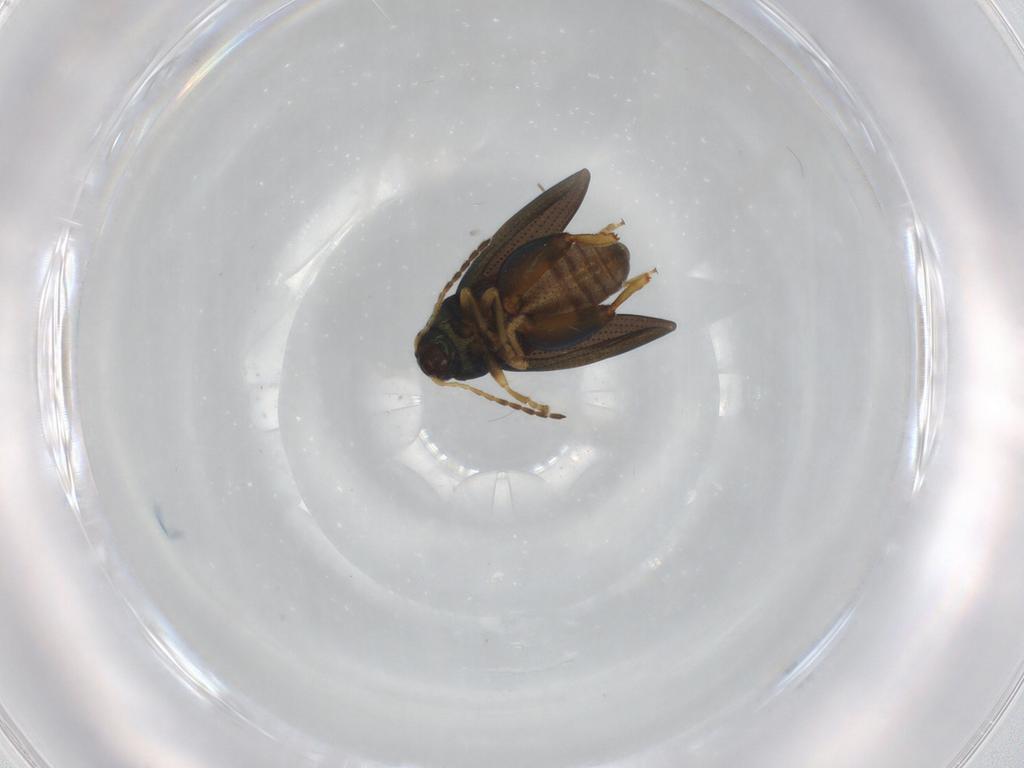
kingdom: Animalia
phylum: Arthropoda
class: Insecta
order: Coleoptera
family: Chrysomelidae
